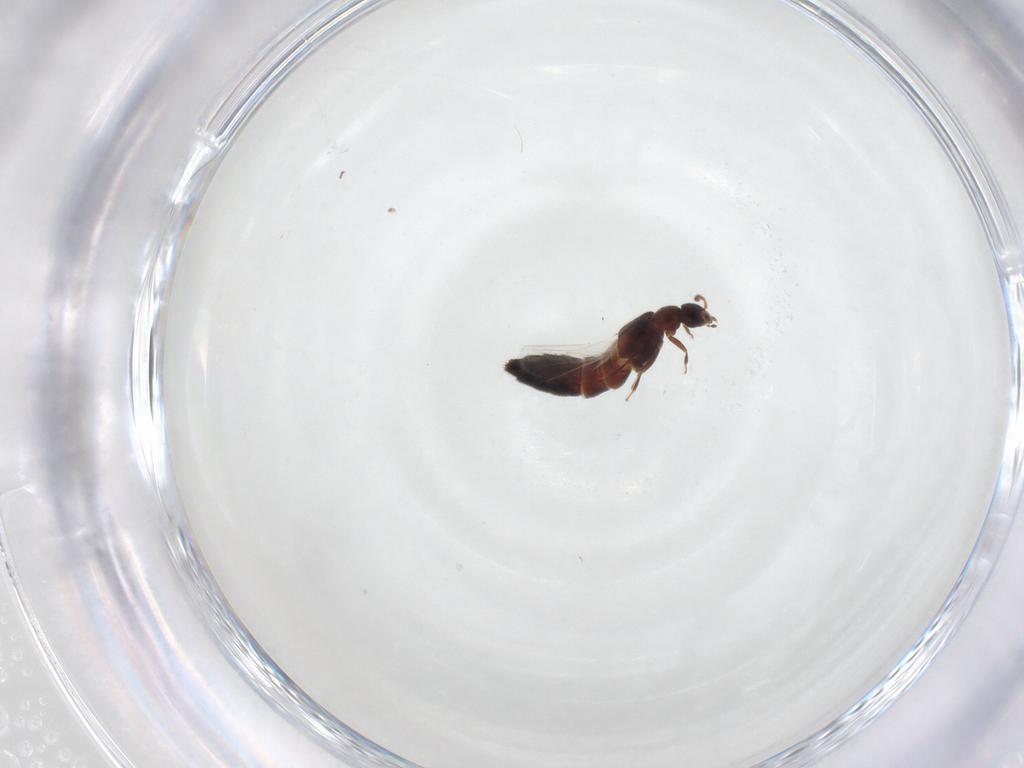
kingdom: Animalia
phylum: Arthropoda
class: Insecta
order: Coleoptera
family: Staphylinidae
